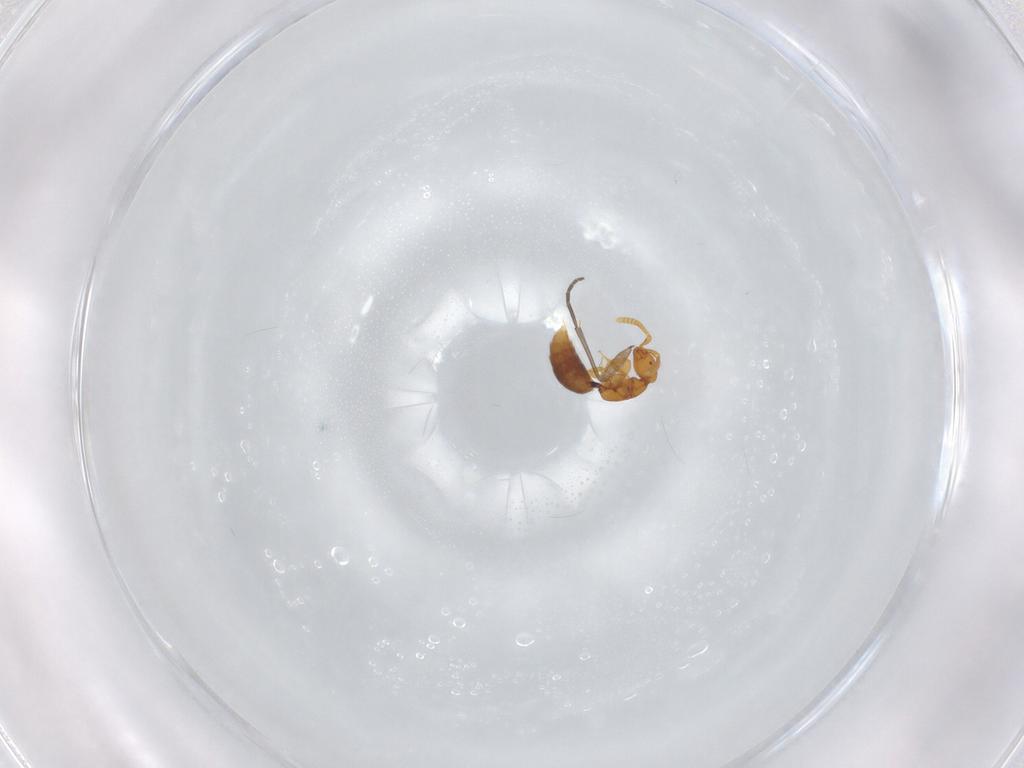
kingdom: Animalia
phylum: Arthropoda
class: Insecta
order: Hymenoptera
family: Bethylidae
